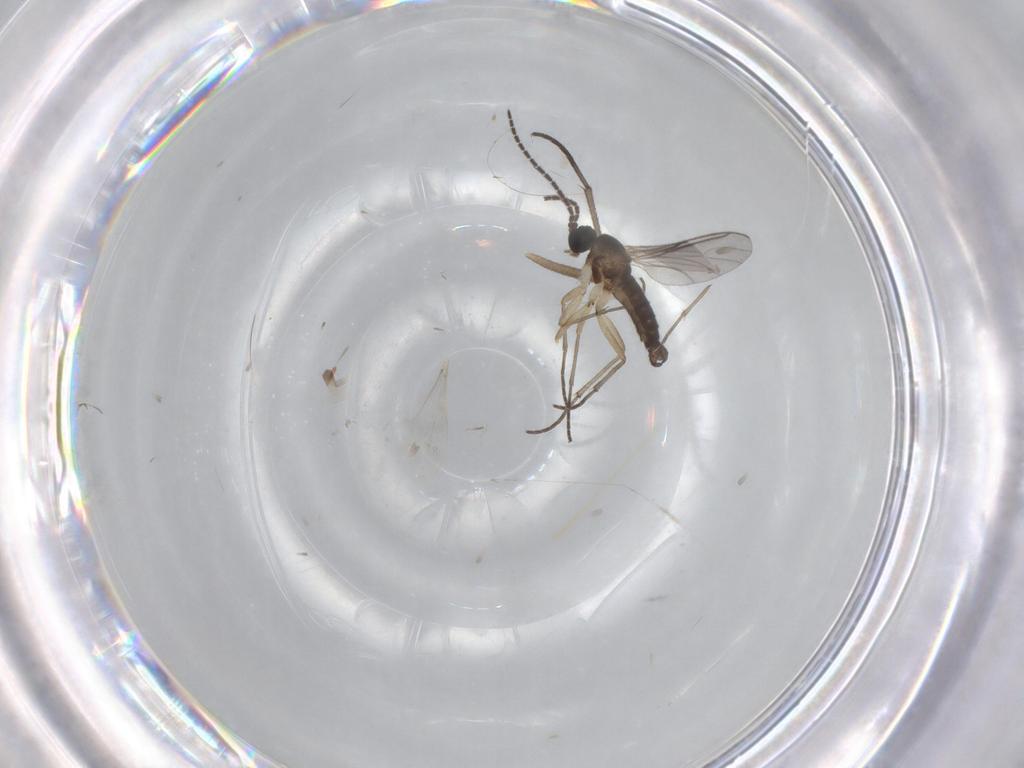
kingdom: Animalia
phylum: Arthropoda
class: Insecta
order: Diptera
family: Sciaridae
